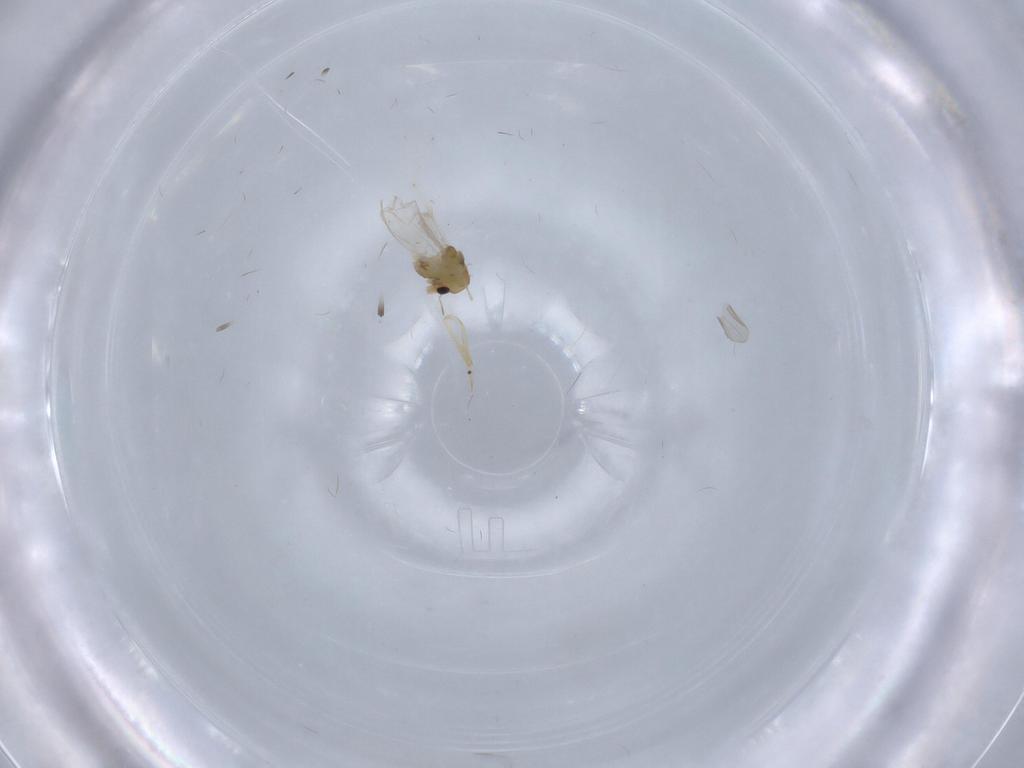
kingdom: Animalia
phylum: Arthropoda
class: Insecta
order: Diptera
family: Chironomidae
